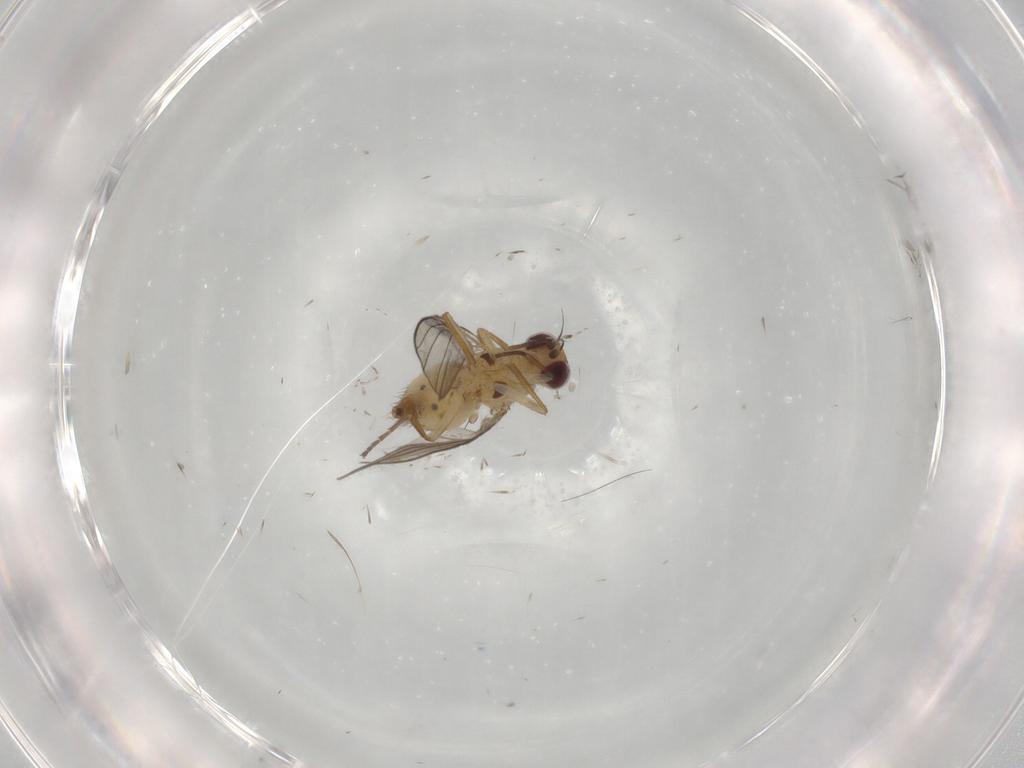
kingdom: Animalia
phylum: Arthropoda
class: Insecta
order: Diptera
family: Agromyzidae
